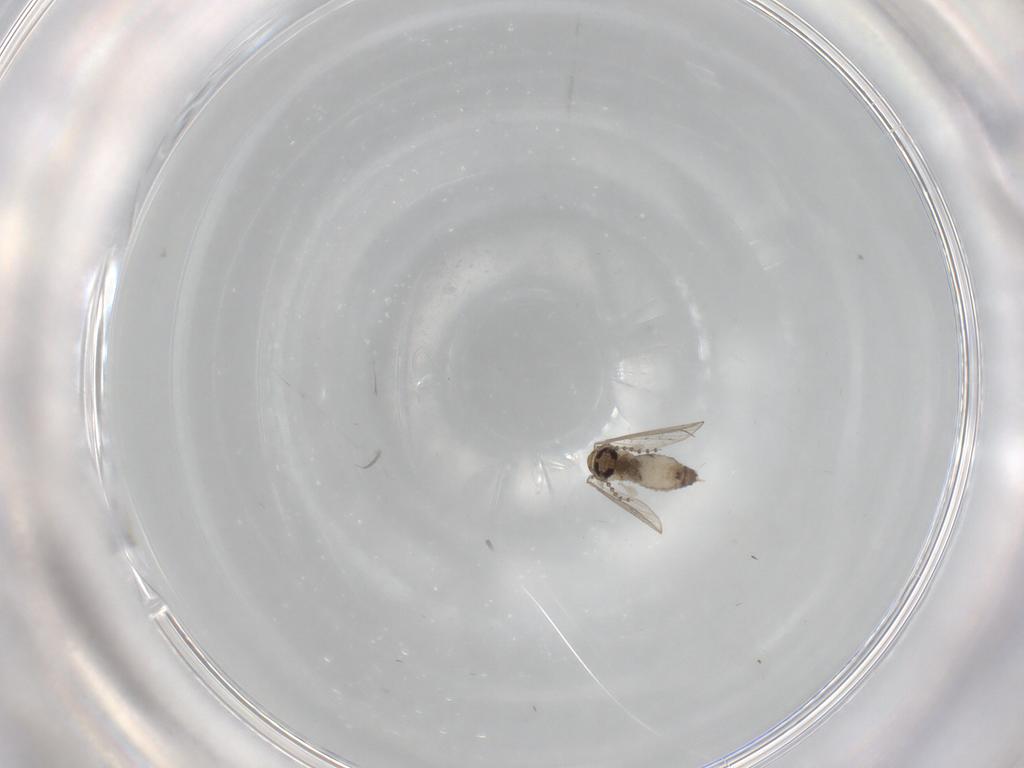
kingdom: Animalia
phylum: Arthropoda
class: Insecta
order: Diptera
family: Psychodidae
